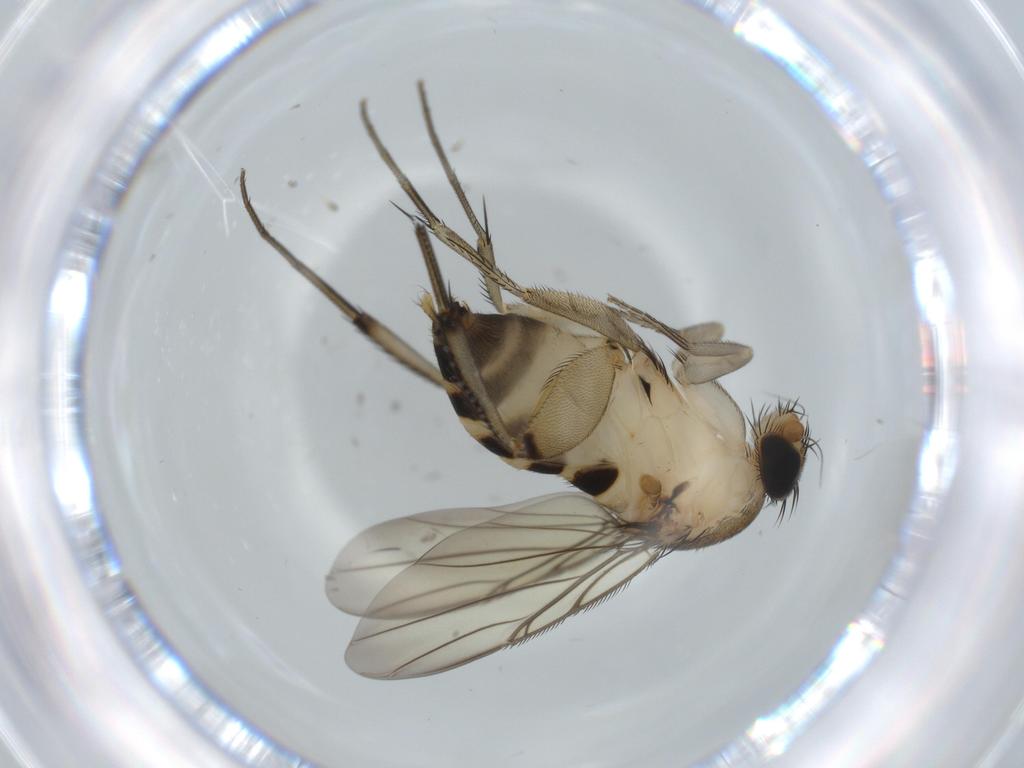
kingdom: Animalia
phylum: Arthropoda
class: Insecta
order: Diptera
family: Phoridae
